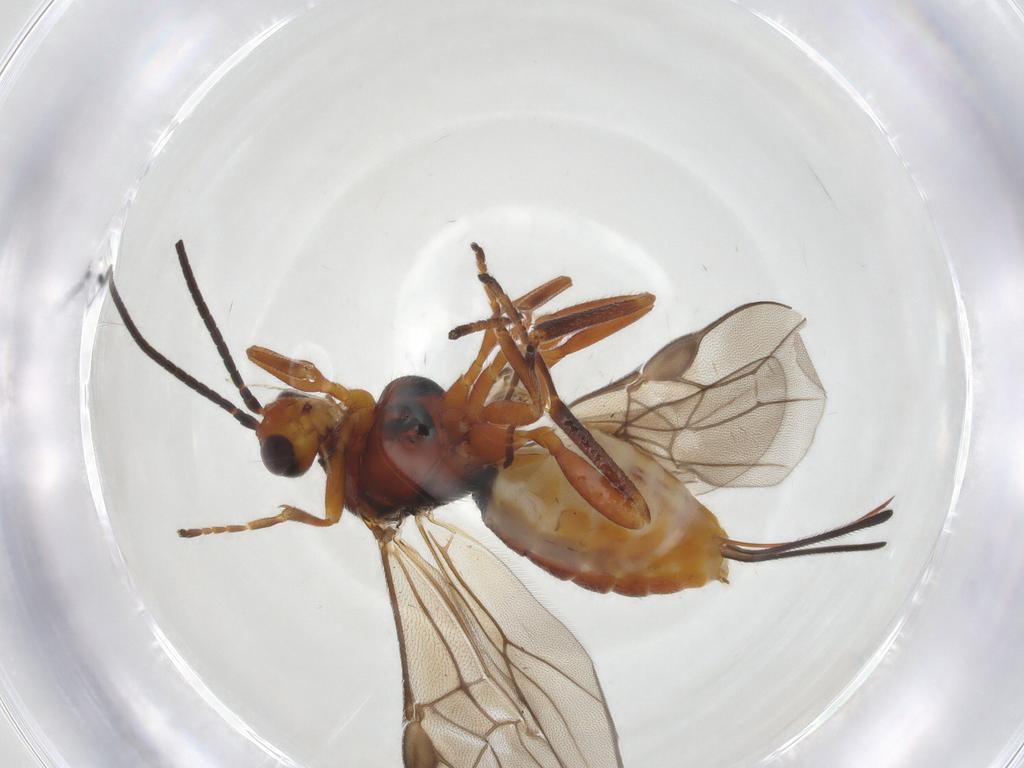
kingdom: Animalia
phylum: Arthropoda
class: Insecta
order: Hymenoptera
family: Braconidae
